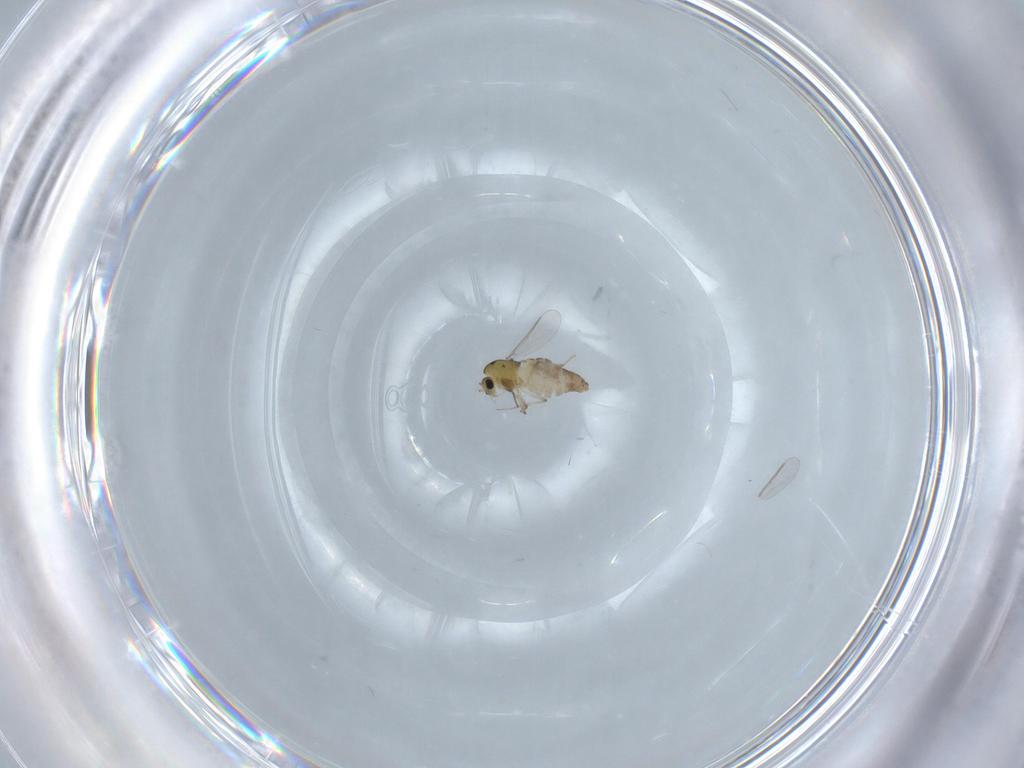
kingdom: Animalia
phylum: Arthropoda
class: Insecta
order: Diptera
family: Chironomidae
